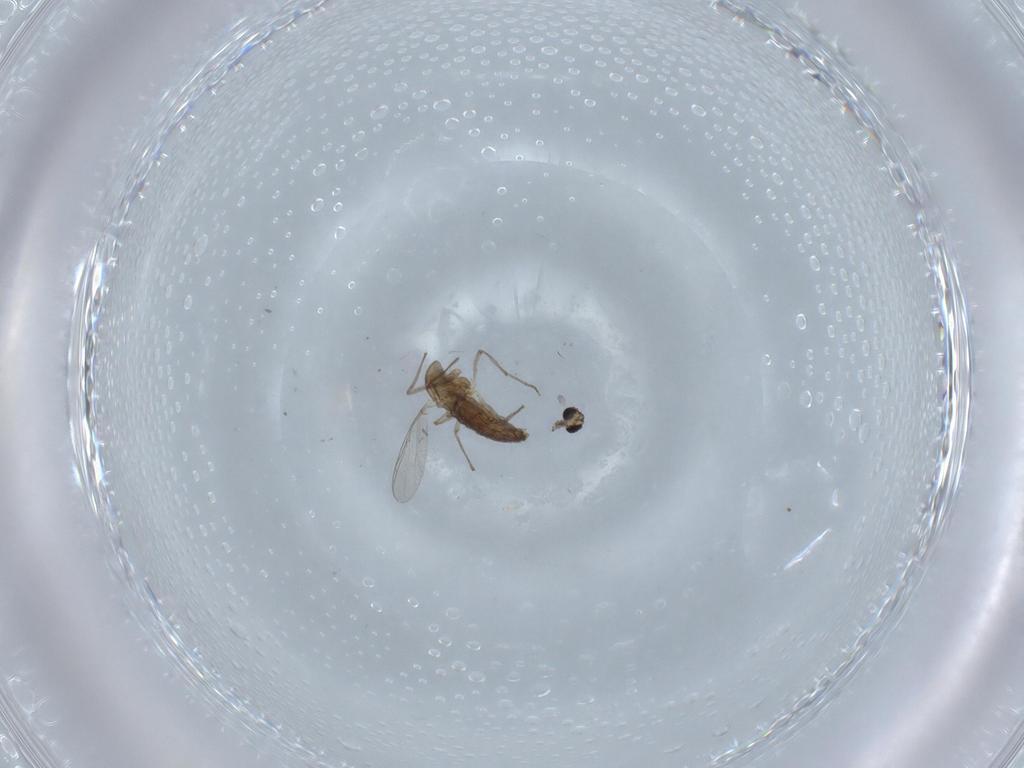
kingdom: Animalia
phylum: Arthropoda
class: Insecta
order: Diptera
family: Chironomidae
